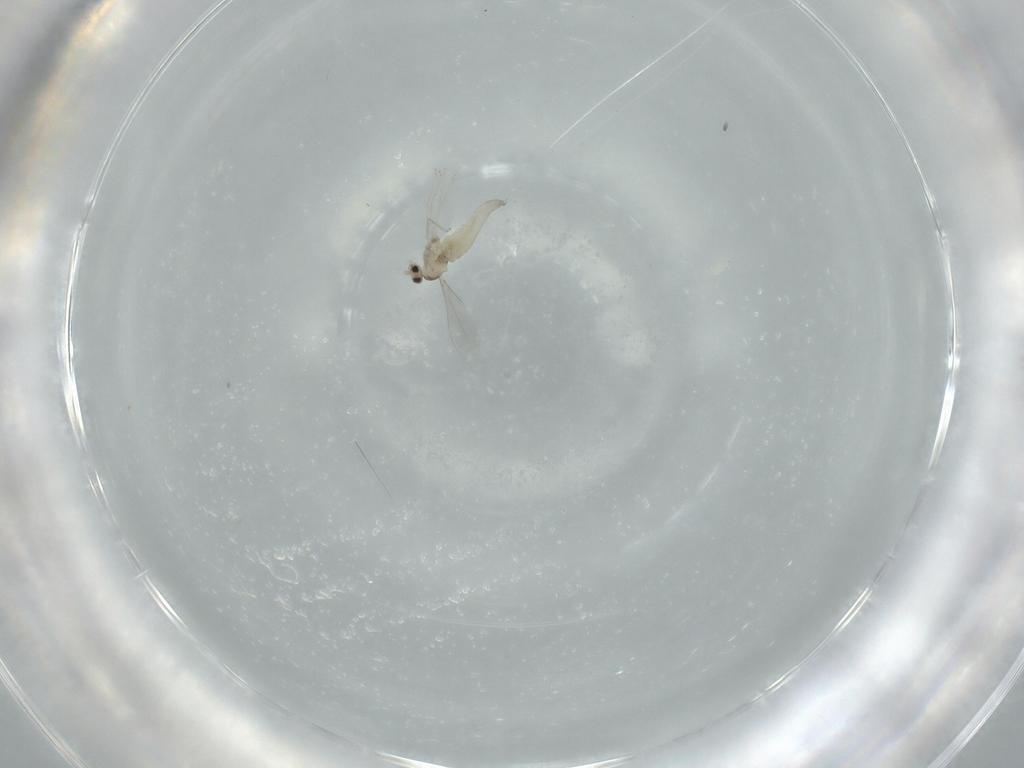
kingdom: Animalia
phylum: Arthropoda
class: Insecta
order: Diptera
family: Cecidomyiidae
